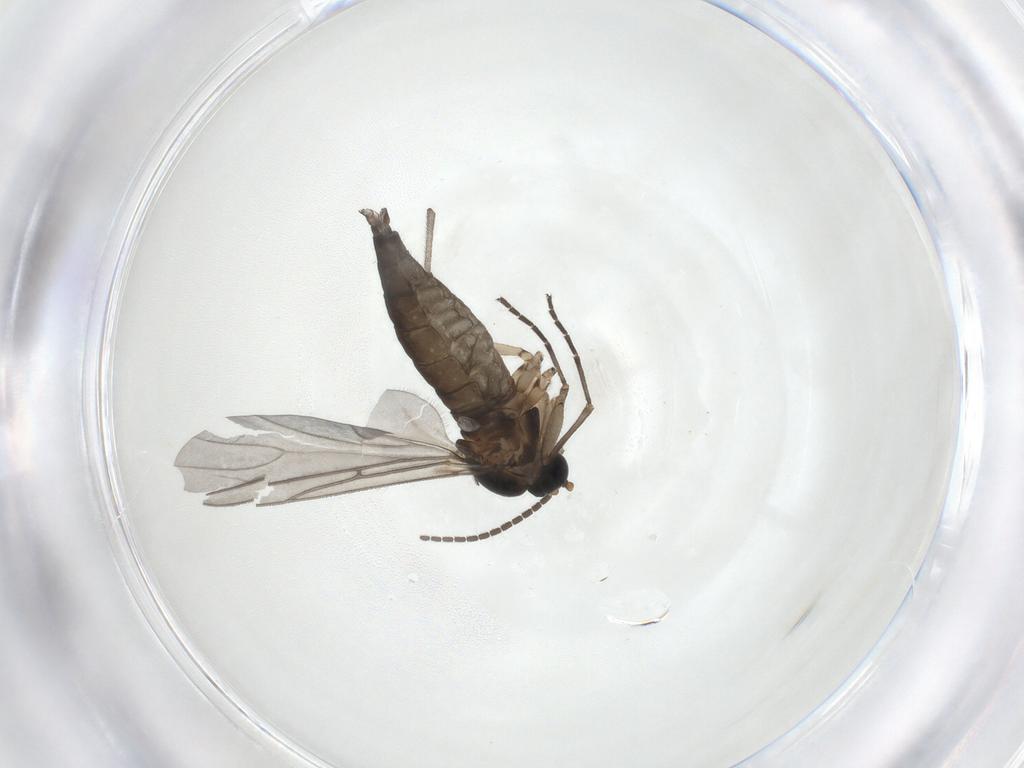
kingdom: Animalia
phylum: Arthropoda
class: Insecta
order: Diptera
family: Sciaridae
